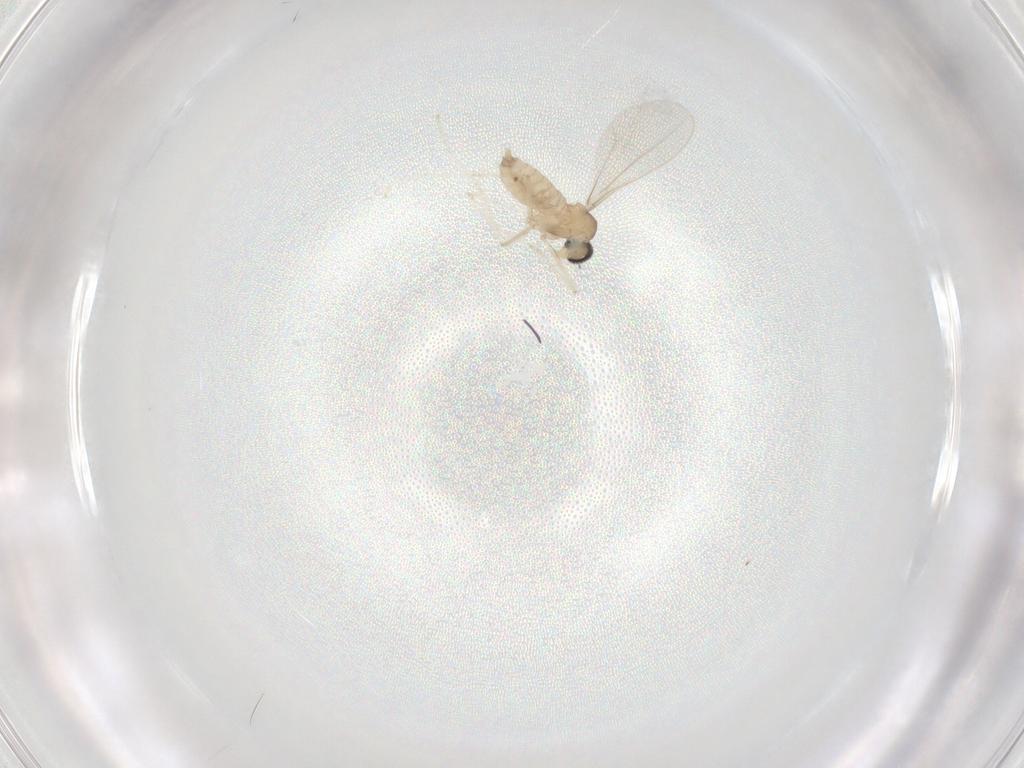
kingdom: Animalia
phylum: Arthropoda
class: Insecta
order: Diptera
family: Cecidomyiidae
